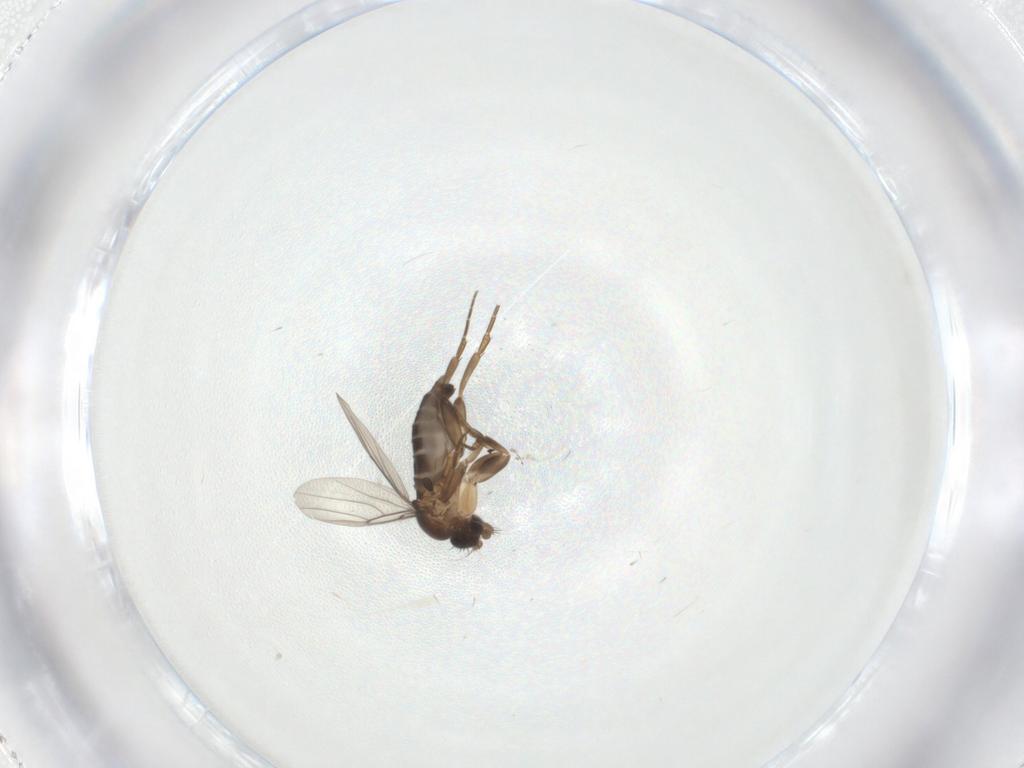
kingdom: Animalia
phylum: Arthropoda
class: Insecta
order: Diptera
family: Phoridae
